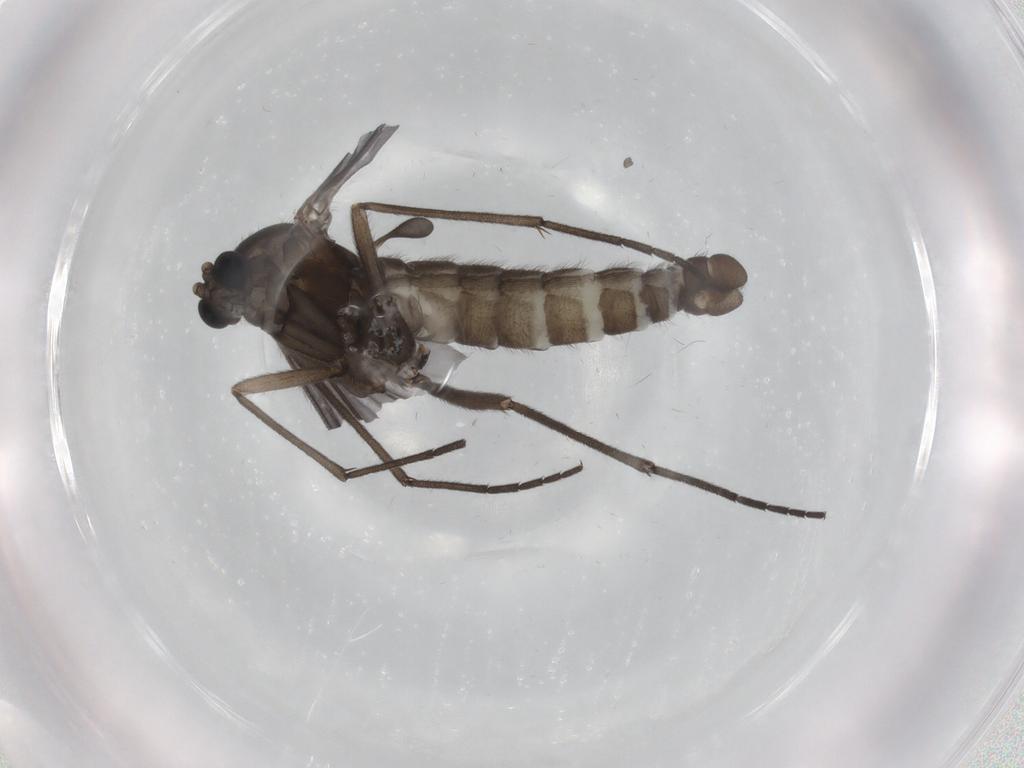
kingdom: Animalia
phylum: Arthropoda
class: Insecta
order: Diptera
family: Sciaridae
